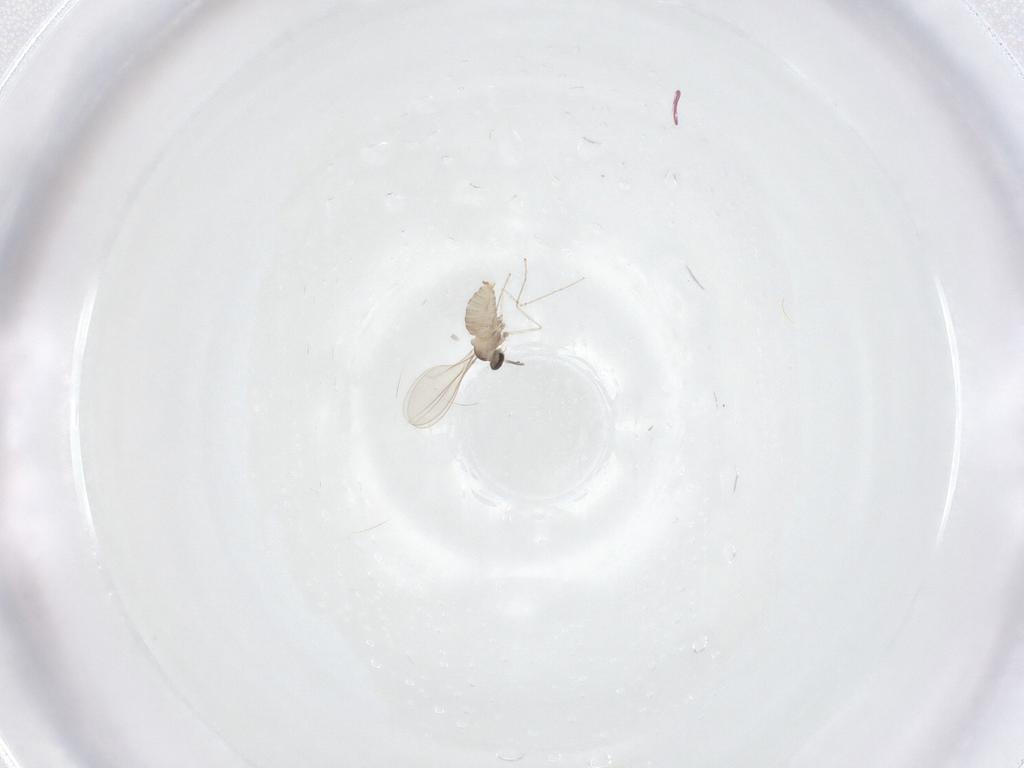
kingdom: Animalia
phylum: Arthropoda
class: Insecta
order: Diptera
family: Cecidomyiidae
